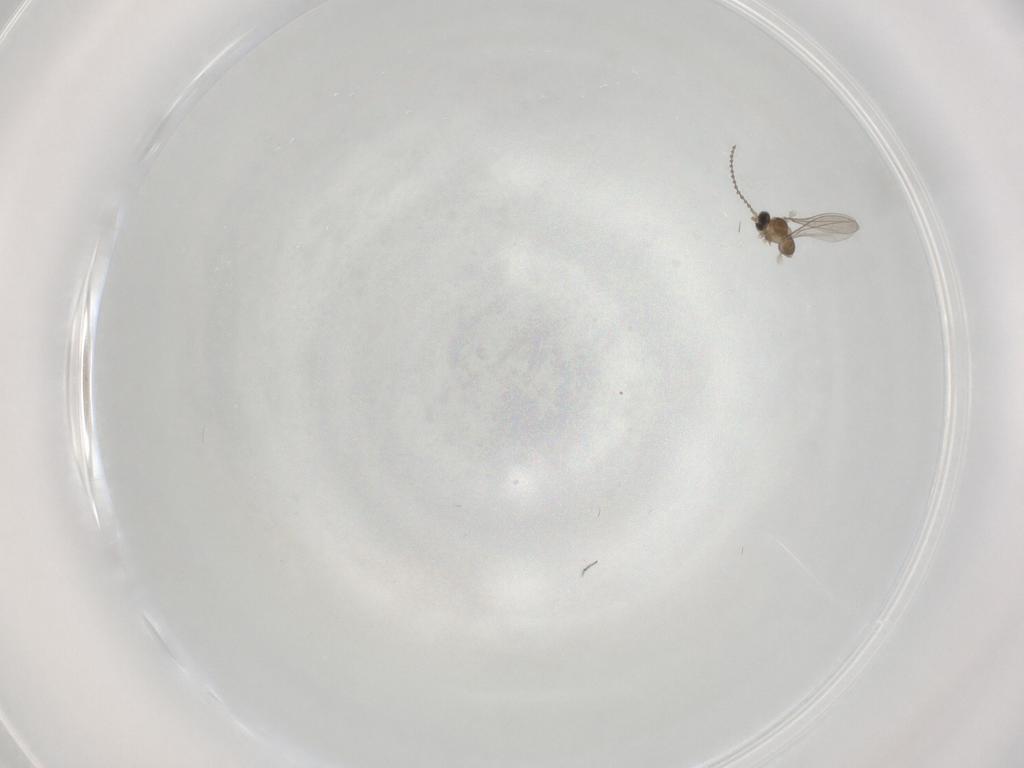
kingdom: Animalia
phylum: Arthropoda
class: Insecta
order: Diptera
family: Cecidomyiidae
